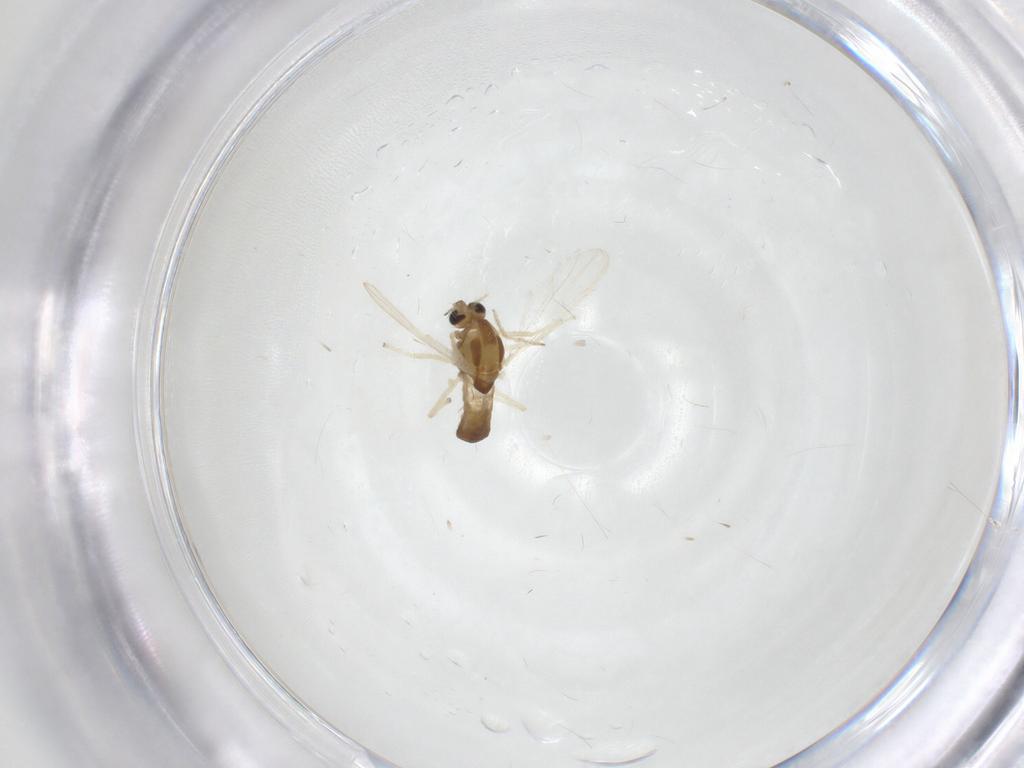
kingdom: Animalia
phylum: Arthropoda
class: Insecta
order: Diptera
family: Chironomidae
